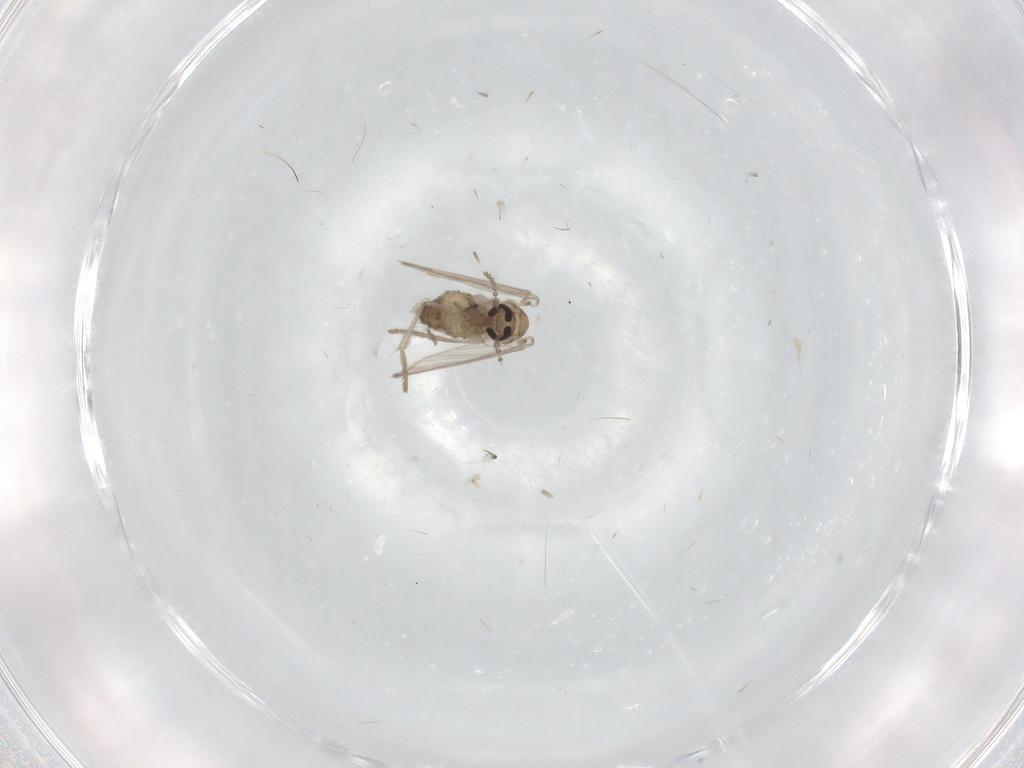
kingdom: Animalia
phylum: Arthropoda
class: Insecta
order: Diptera
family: Psychodidae
